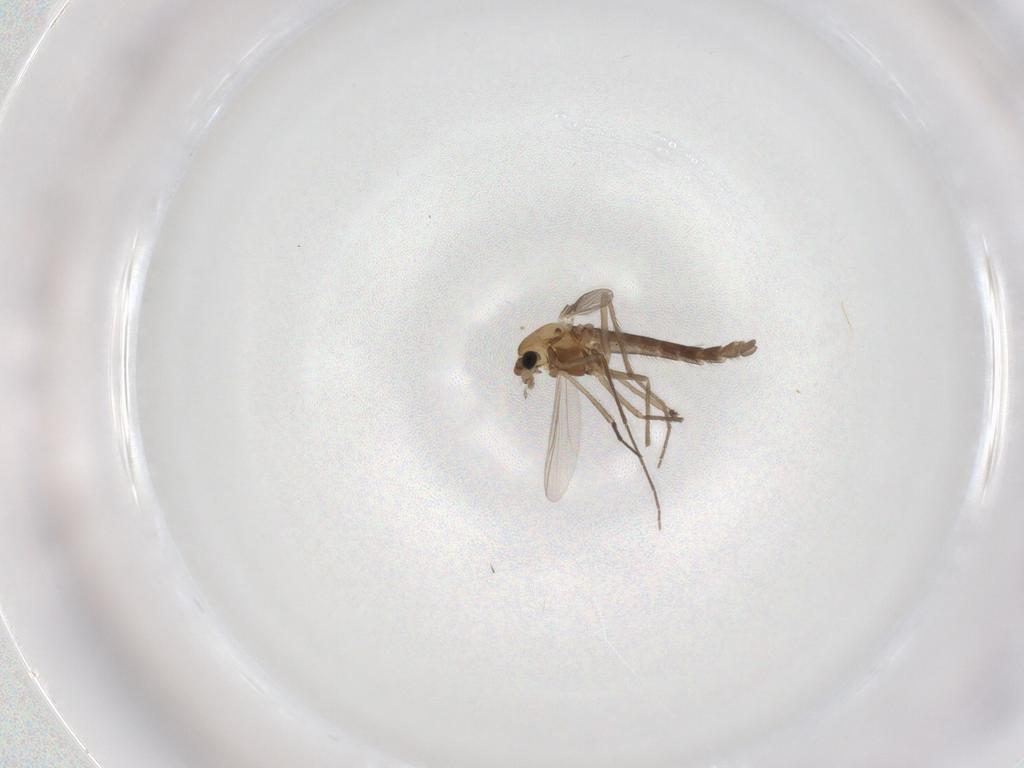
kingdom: Animalia
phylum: Arthropoda
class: Insecta
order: Diptera
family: Chironomidae
